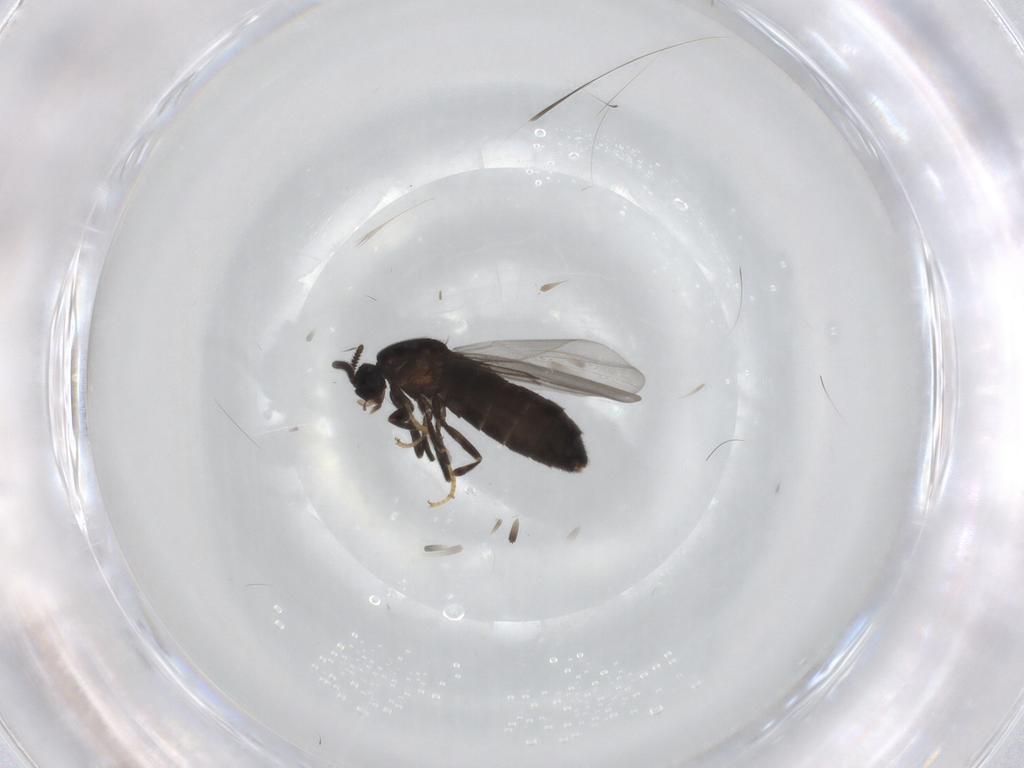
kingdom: Animalia
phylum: Arthropoda
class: Insecta
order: Diptera
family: Scatopsidae
